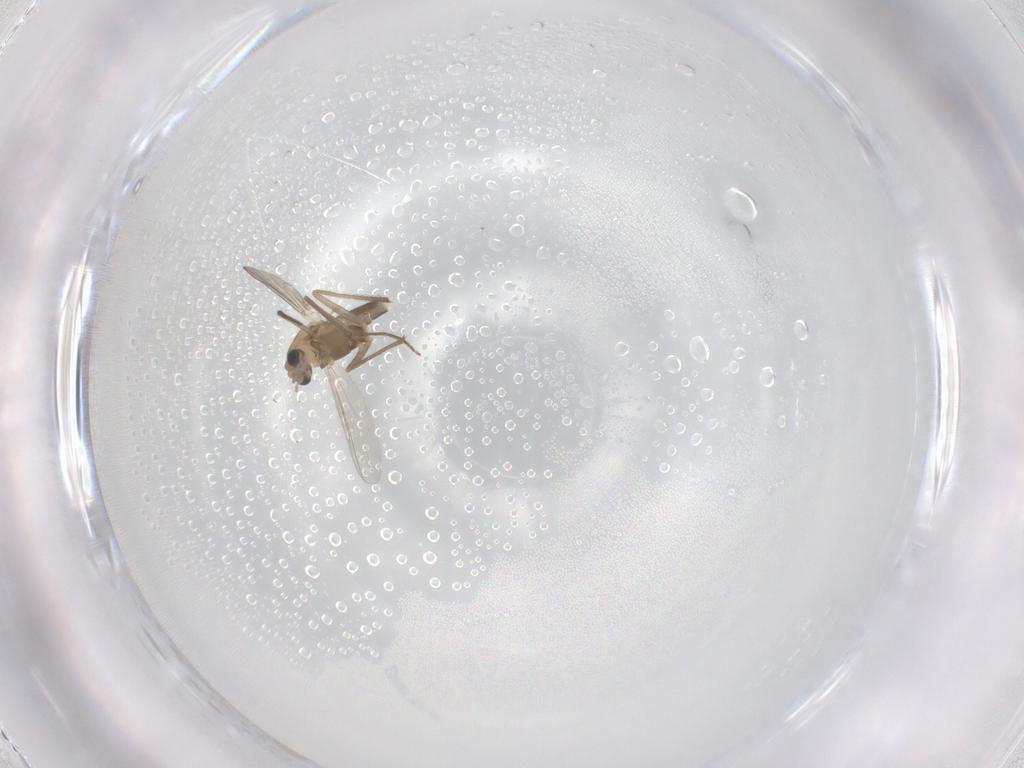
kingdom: Animalia
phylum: Arthropoda
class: Insecta
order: Diptera
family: Chironomidae
